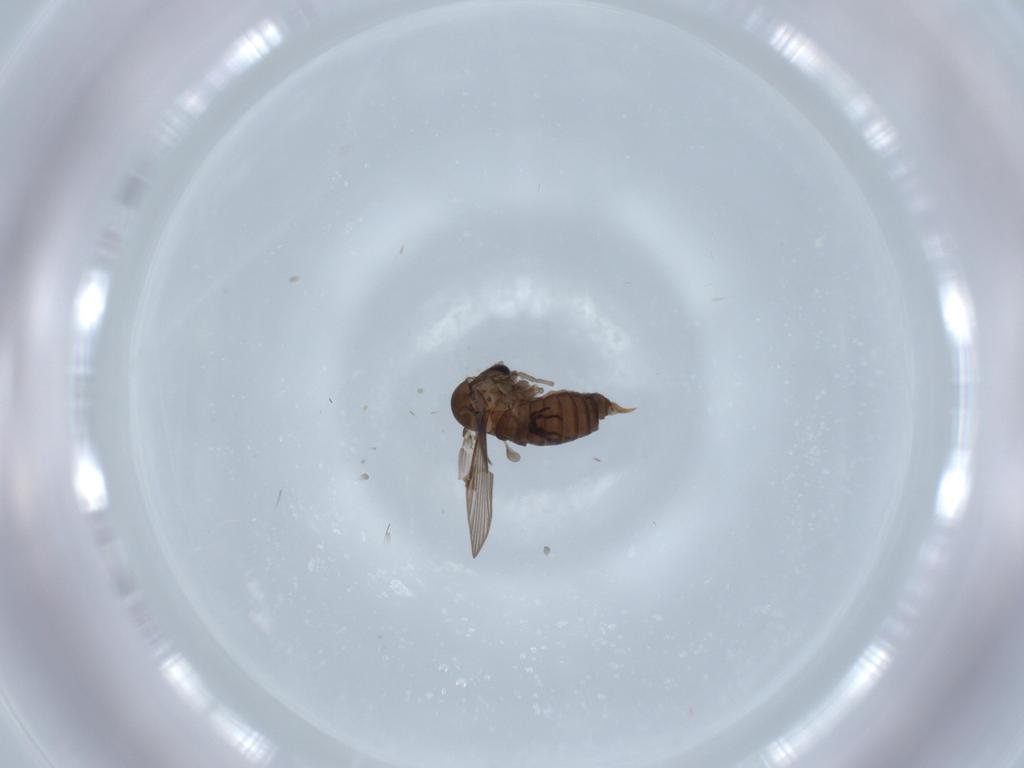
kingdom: Animalia
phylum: Arthropoda
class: Insecta
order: Diptera
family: Psychodidae
